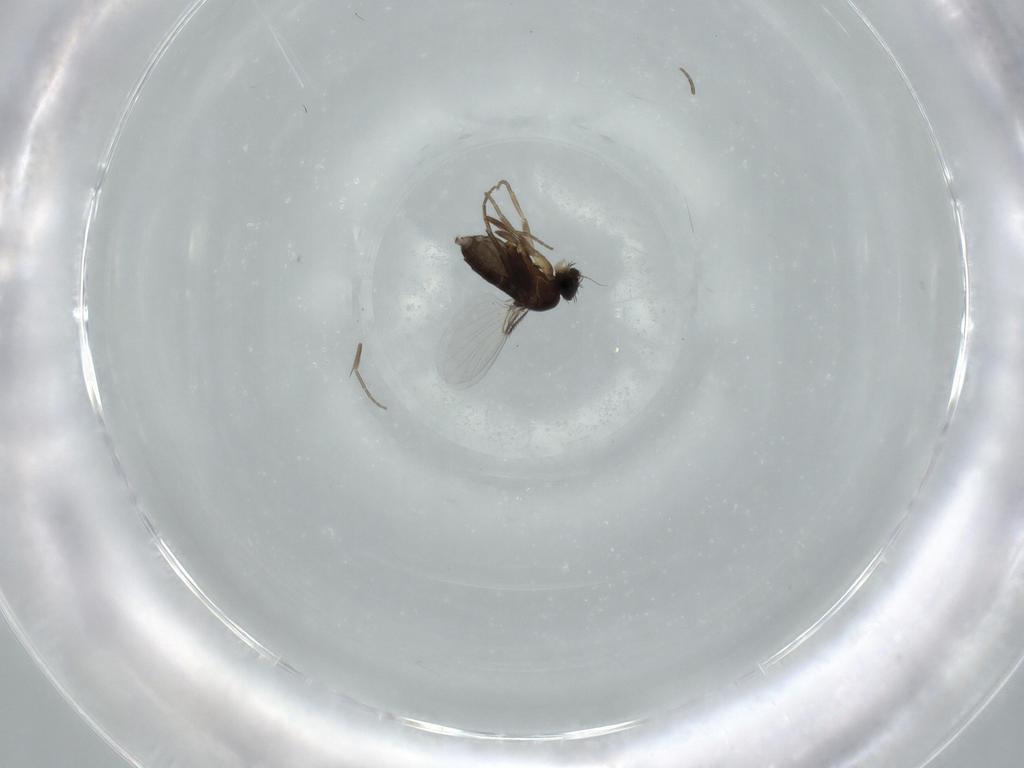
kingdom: Animalia
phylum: Arthropoda
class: Insecta
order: Diptera
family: Phoridae
